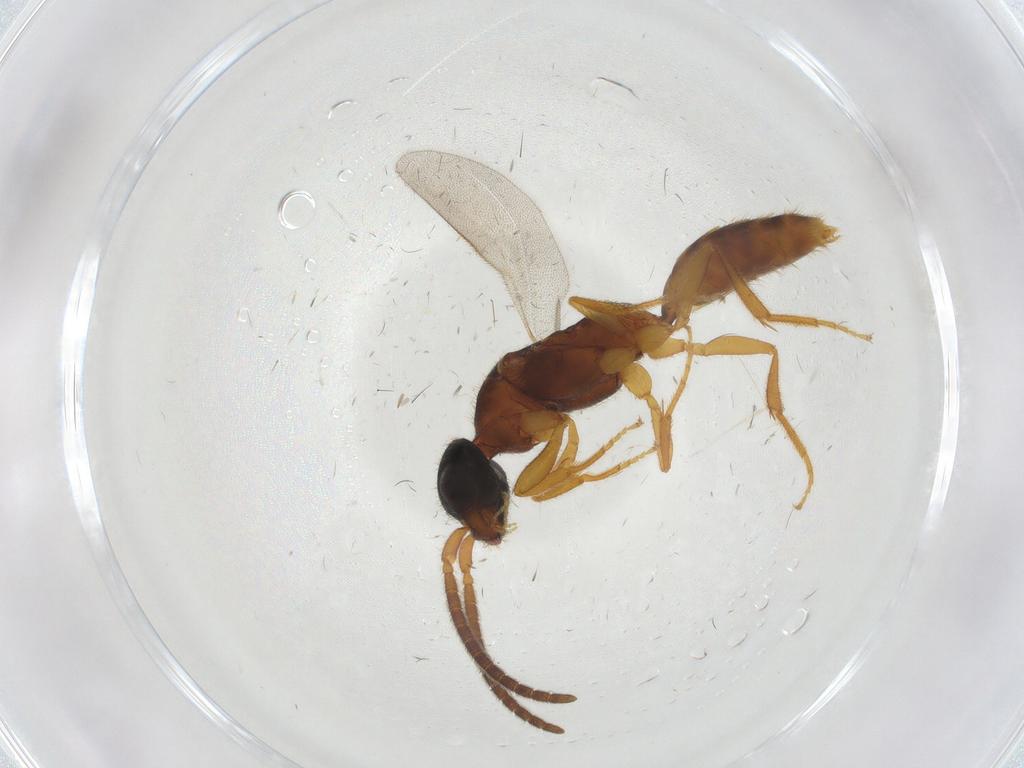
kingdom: Animalia
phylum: Arthropoda
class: Insecta
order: Hymenoptera
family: Bethylidae
